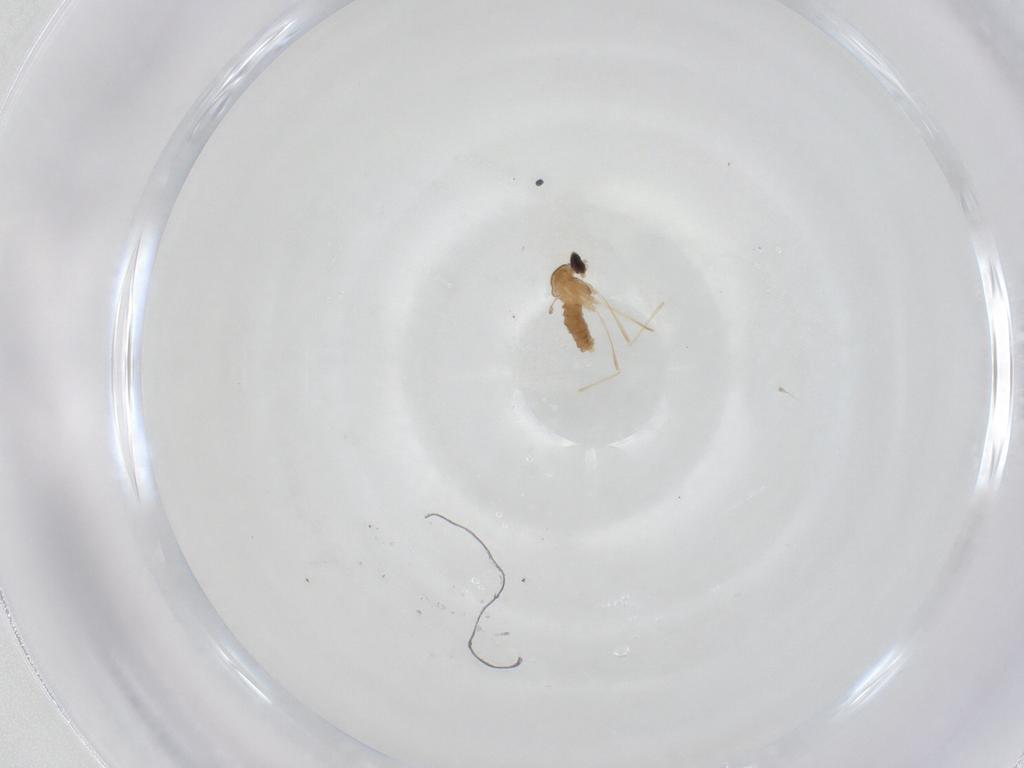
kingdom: Animalia
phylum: Arthropoda
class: Insecta
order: Diptera
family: Cecidomyiidae
